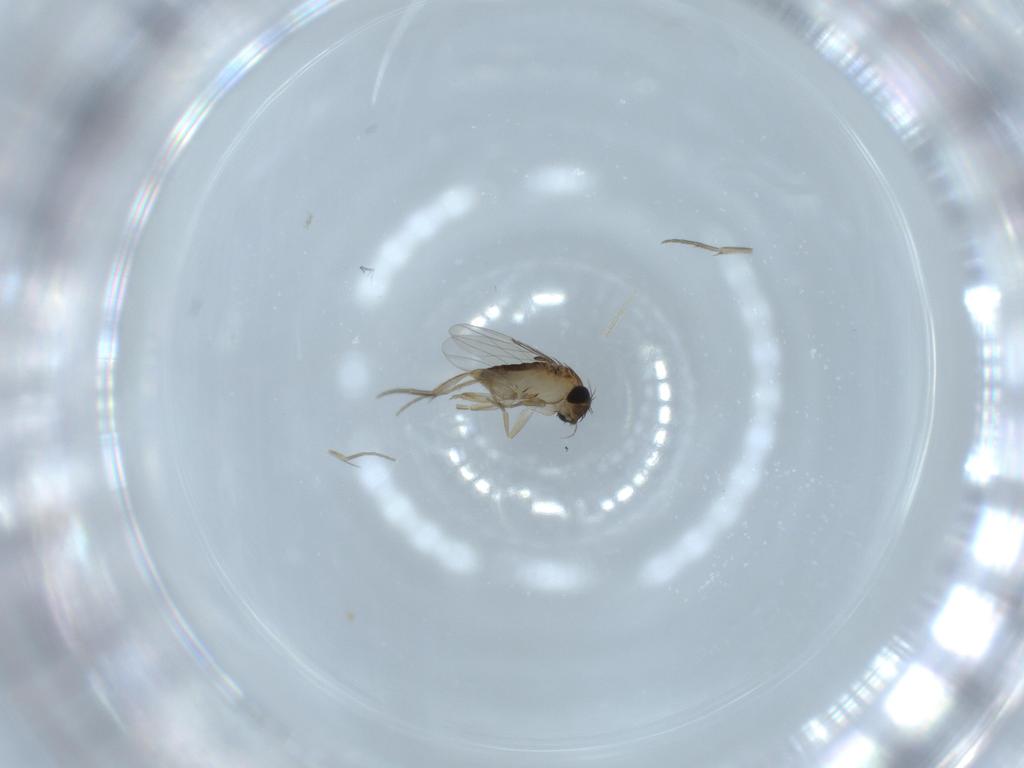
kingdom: Animalia
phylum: Arthropoda
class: Insecta
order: Diptera
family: Phoridae
